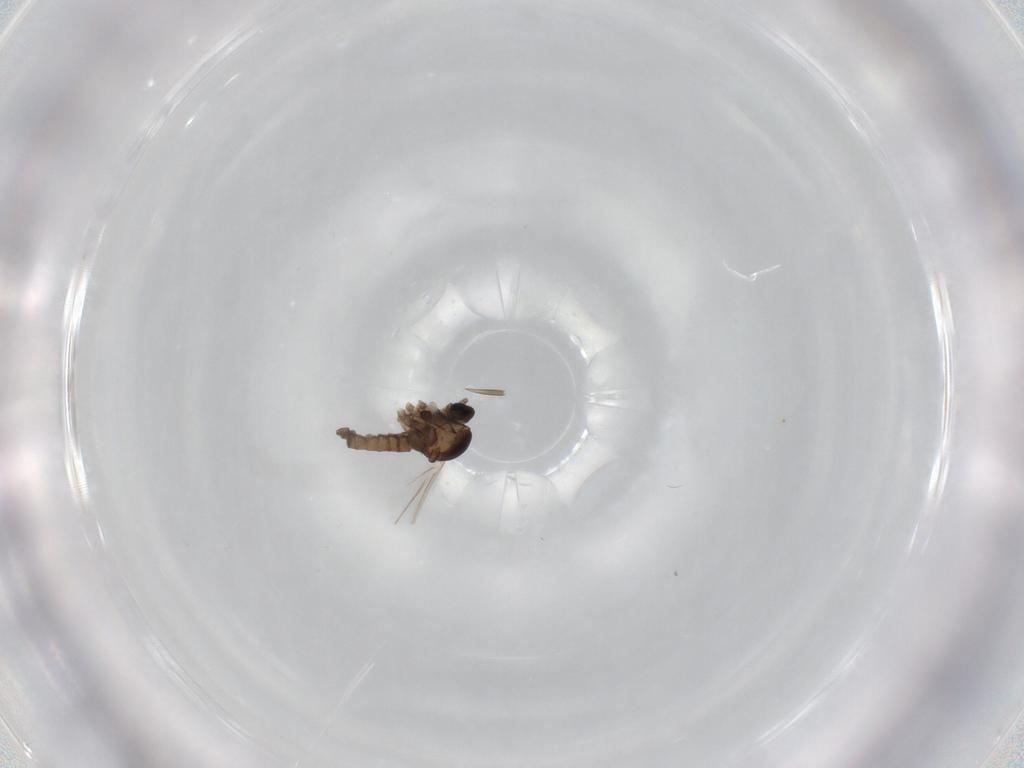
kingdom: Animalia
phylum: Arthropoda
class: Insecta
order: Diptera
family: Cecidomyiidae
